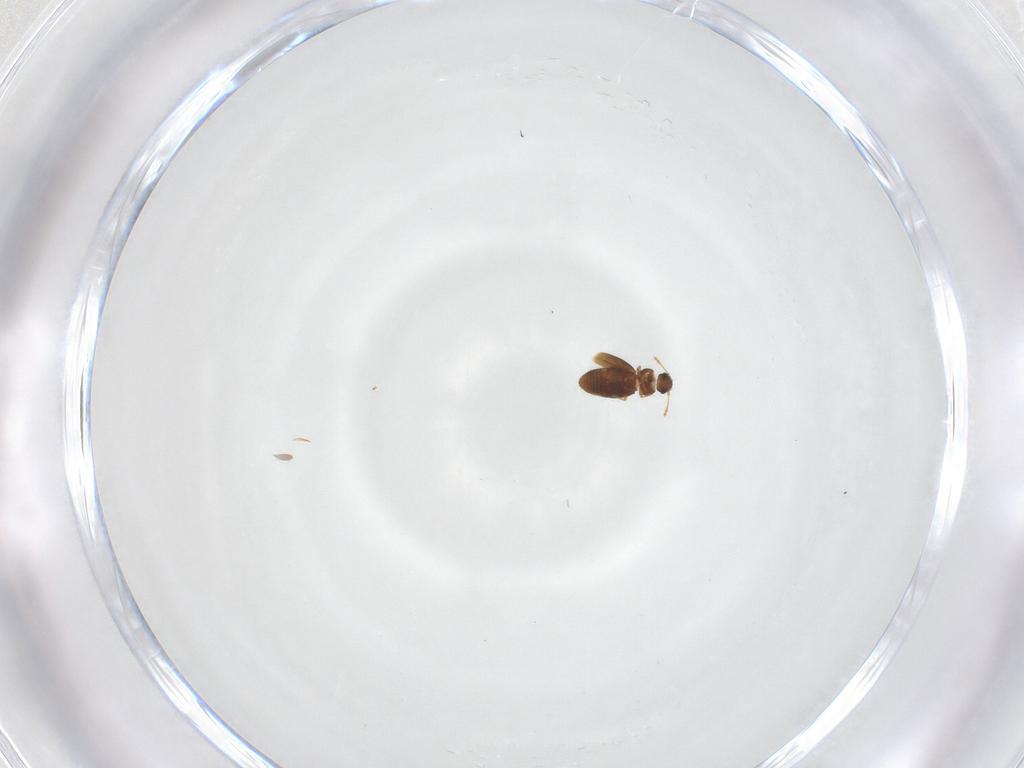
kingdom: Animalia
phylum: Arthropoda
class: Insecta
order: Coleoptera
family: Ptiliidae
